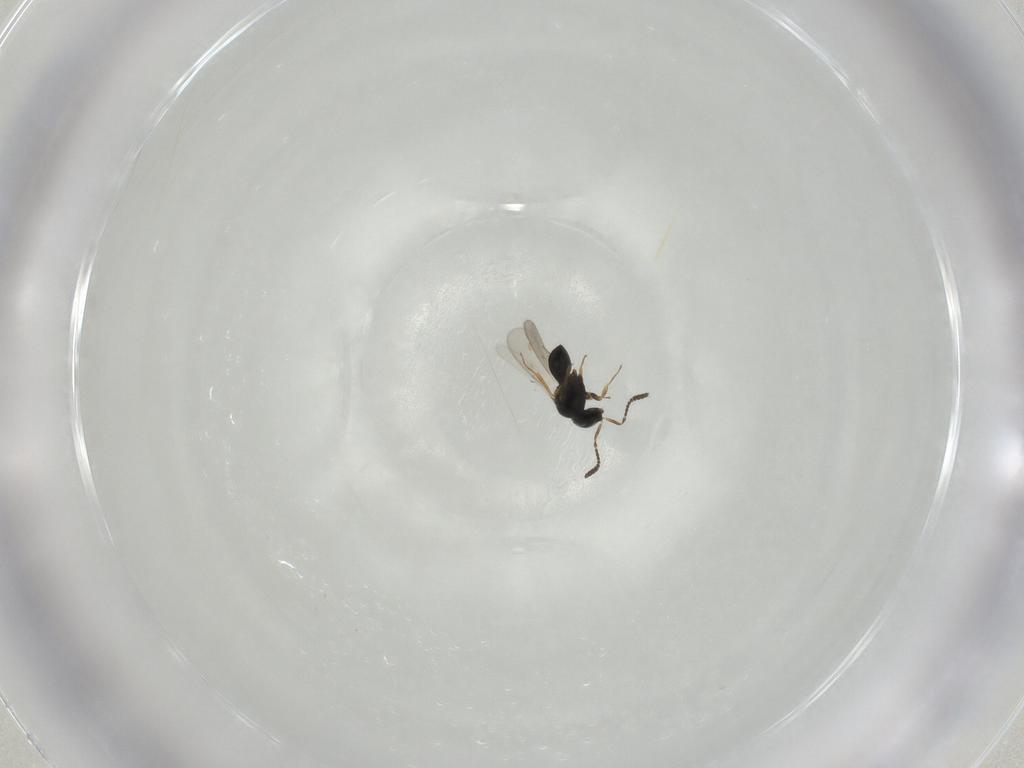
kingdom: Animalia
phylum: Arthropoda
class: Insecta
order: Hymenoptera
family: Scelionidae
